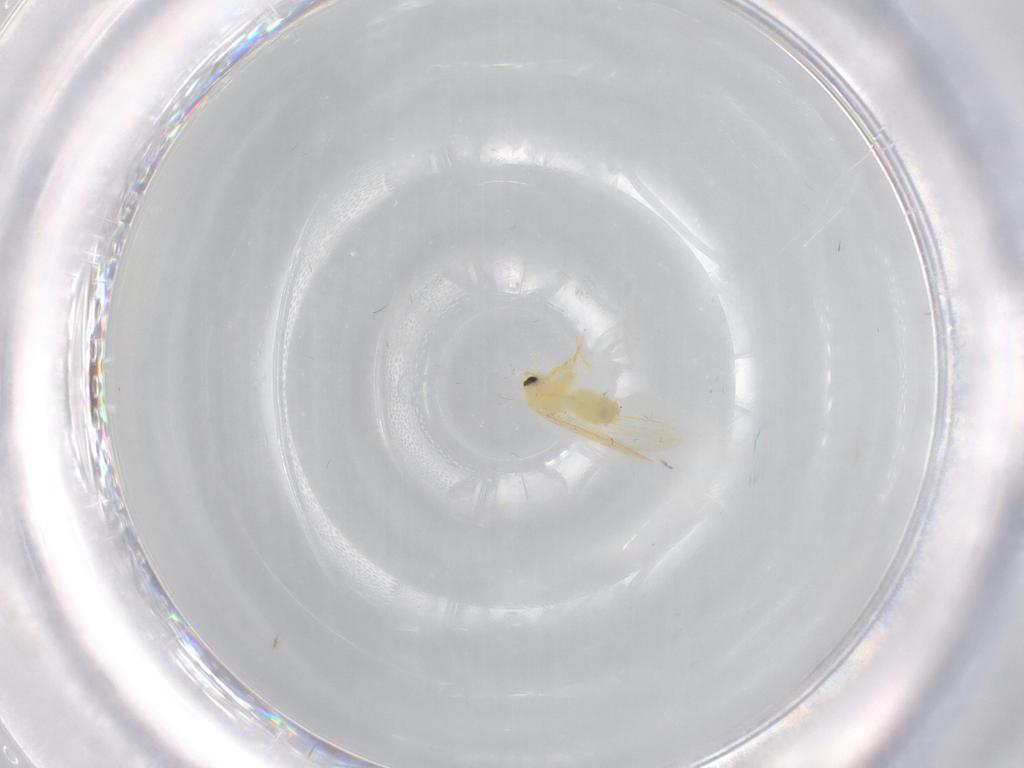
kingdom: Animalia
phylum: Arthropoda
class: Insecta
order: Hemiptera
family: Aleyrodidae
